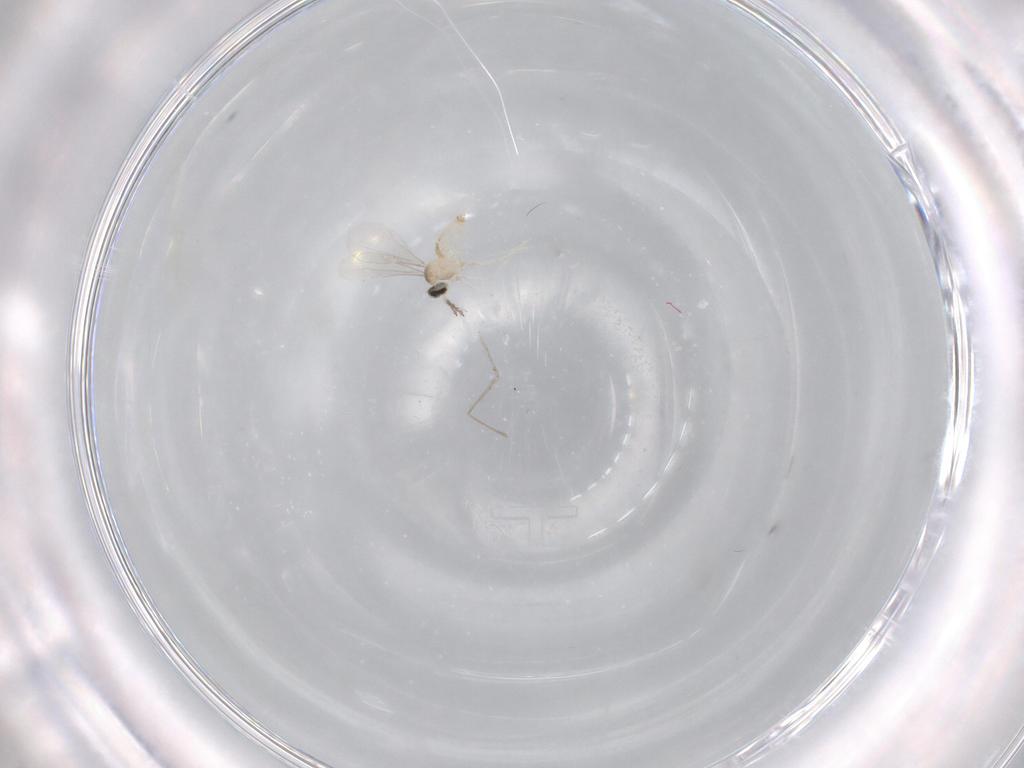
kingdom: Animalia
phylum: Arthropoda
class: Insecta
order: Diptera
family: Cecidomyiidae
